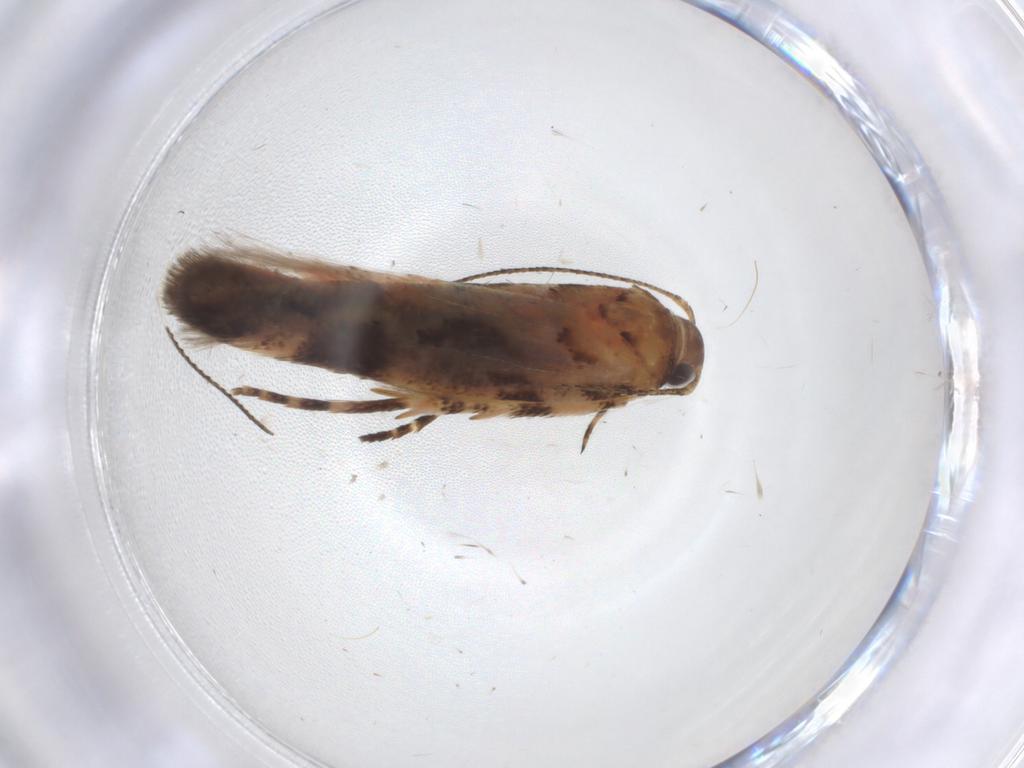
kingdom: Animalia
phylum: Arthropoda
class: Insecta
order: Lepidoptera
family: Gelechiidae
